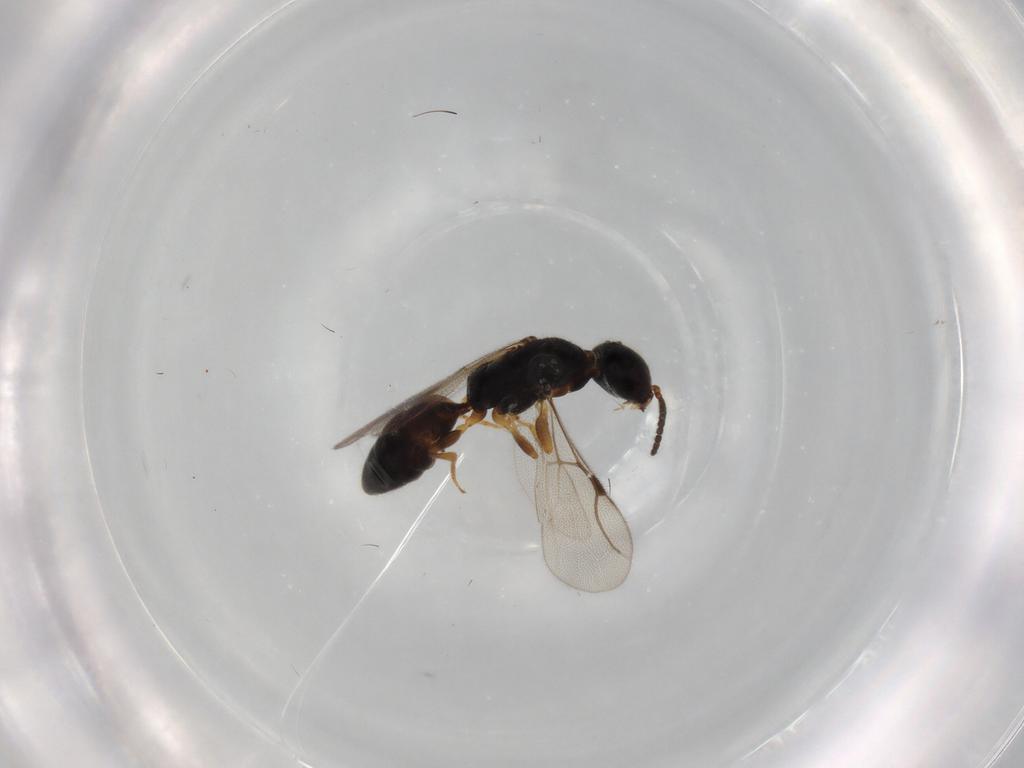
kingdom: Animalia
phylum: Arthropoda
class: Insecta
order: Hymenoptera
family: Bethylidae
